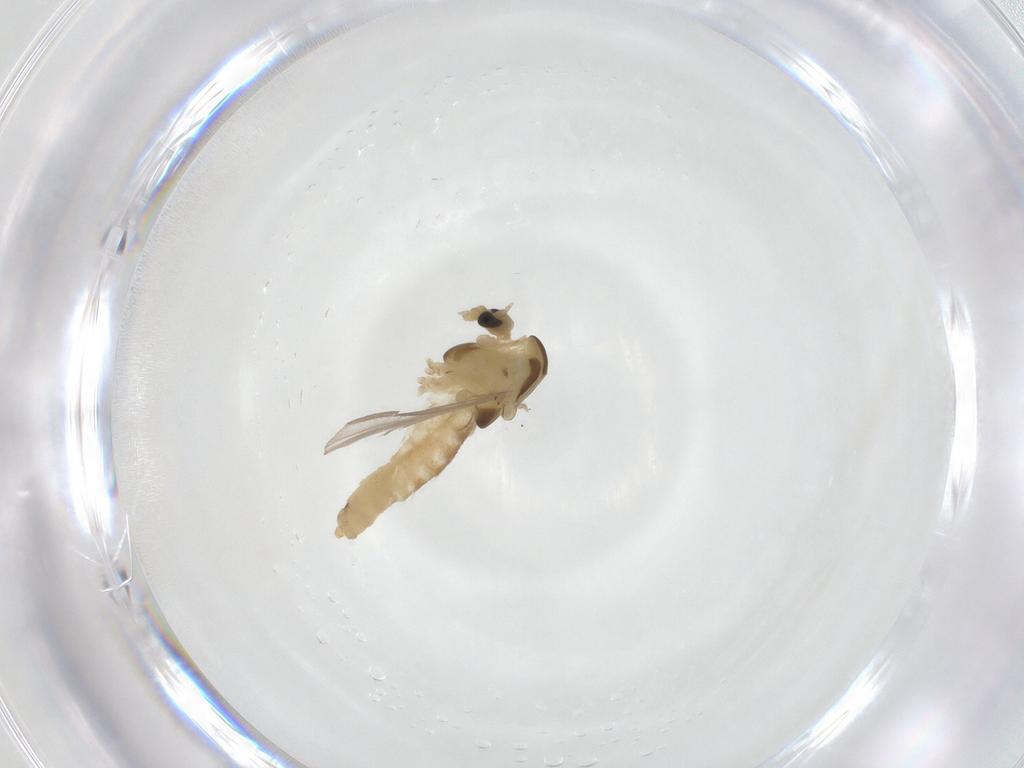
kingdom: Animalia
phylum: Arthropoda
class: Insecta
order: Diptera
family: Chironomidae
